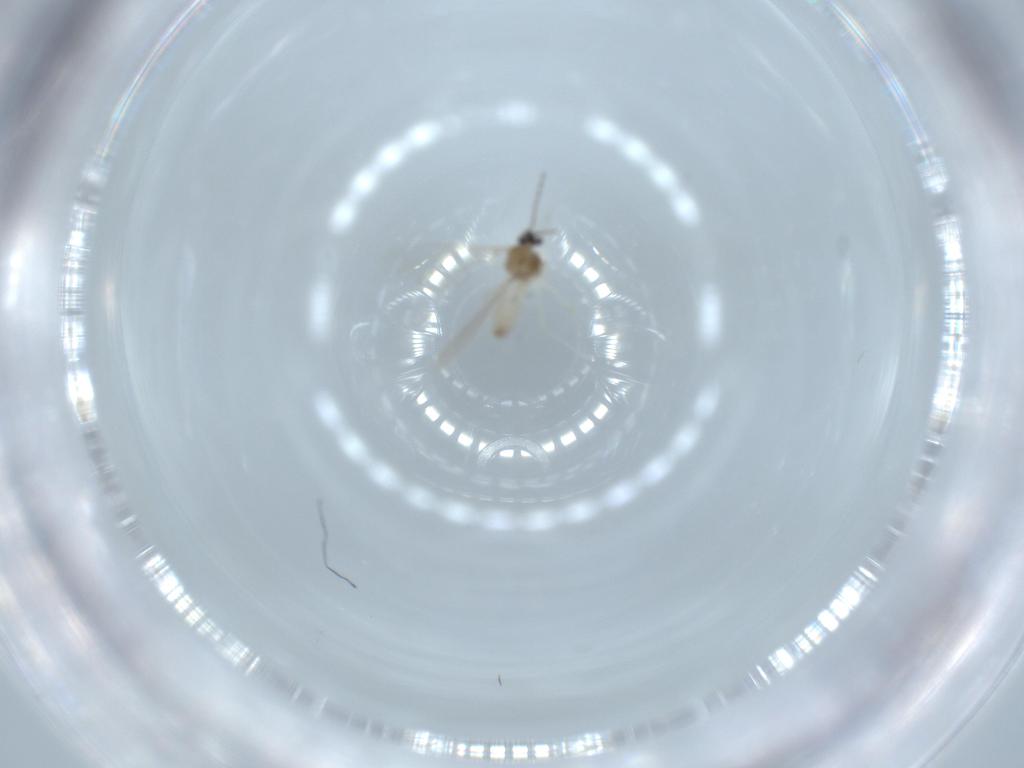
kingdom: Animalia
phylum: Arthropoda
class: Insecta
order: Diptera
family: Cecidomyiidae
